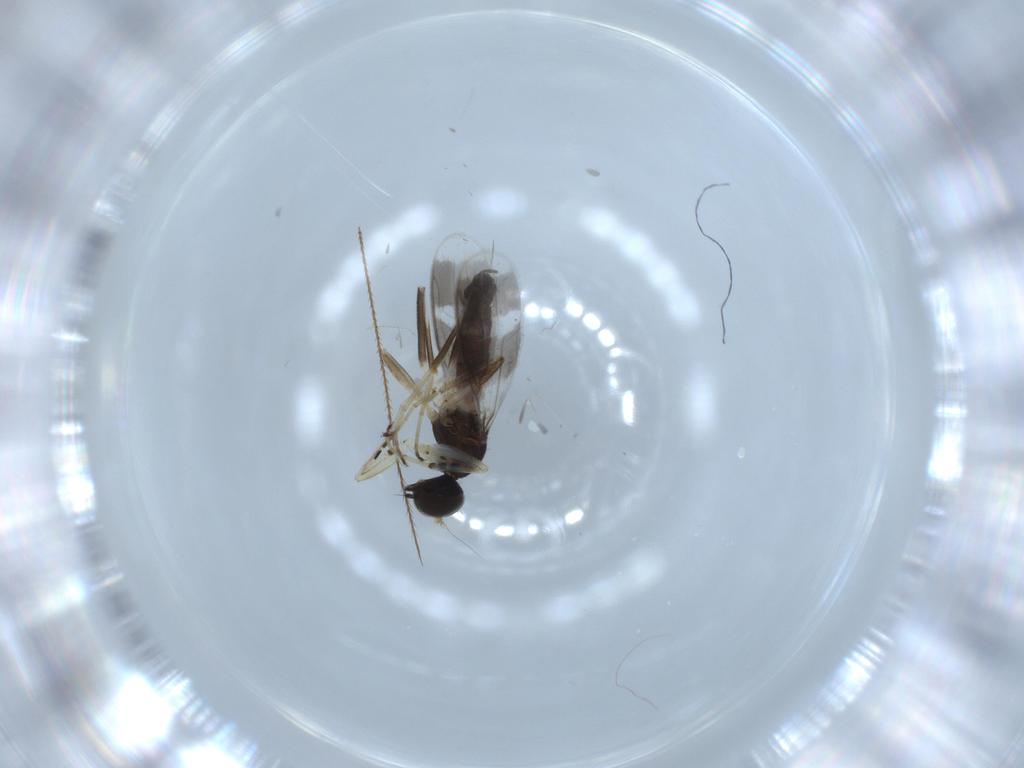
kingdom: Animalia
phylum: Arthropoda
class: Insecta
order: Diptera
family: Hybotidae
